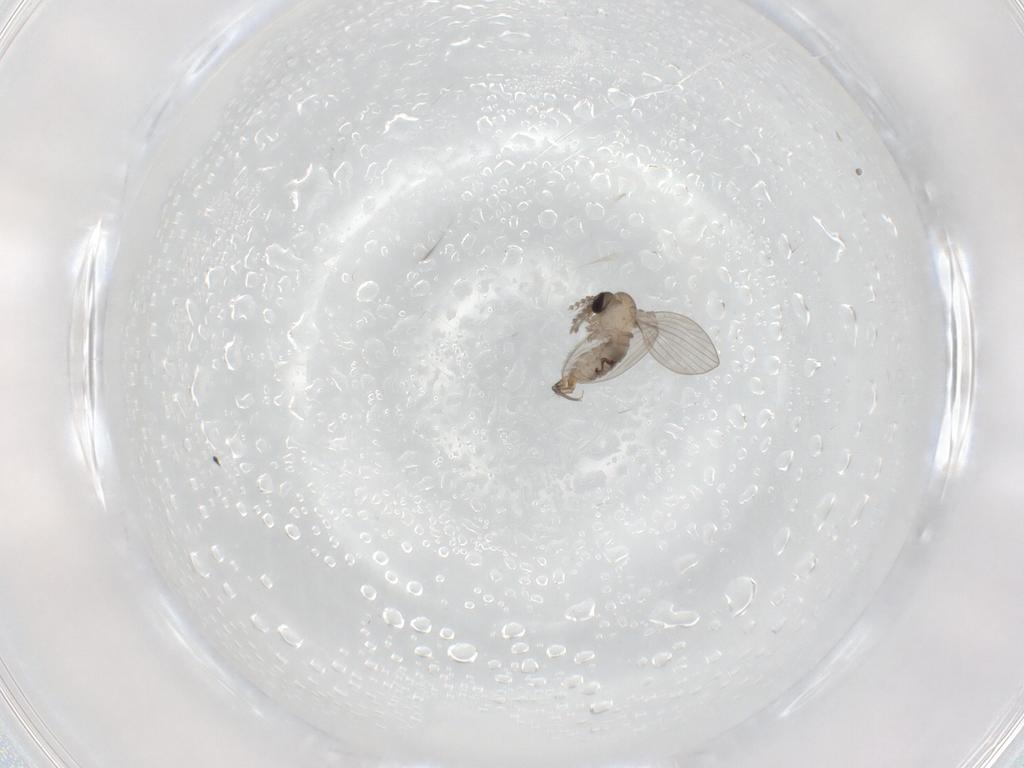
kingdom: Animalia
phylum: Arthropoda
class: Insecta
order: Diptera
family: Psychodidae
